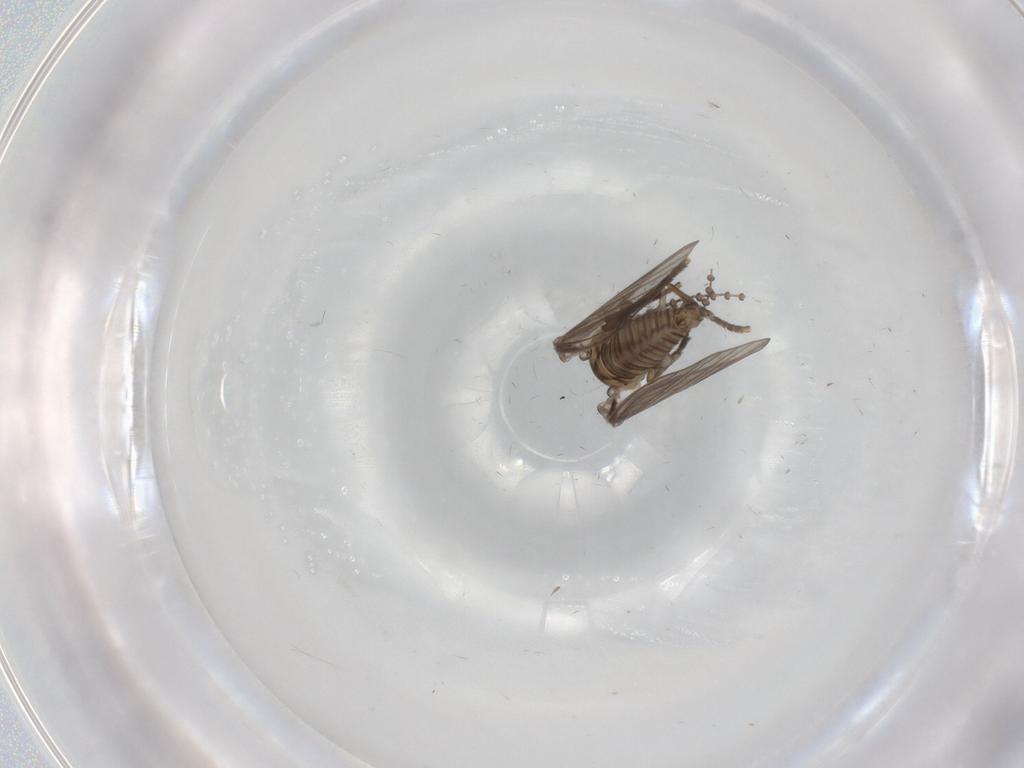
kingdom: Animalia
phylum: Arthropoda
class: Insecta
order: Diptera
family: Psychodidae
